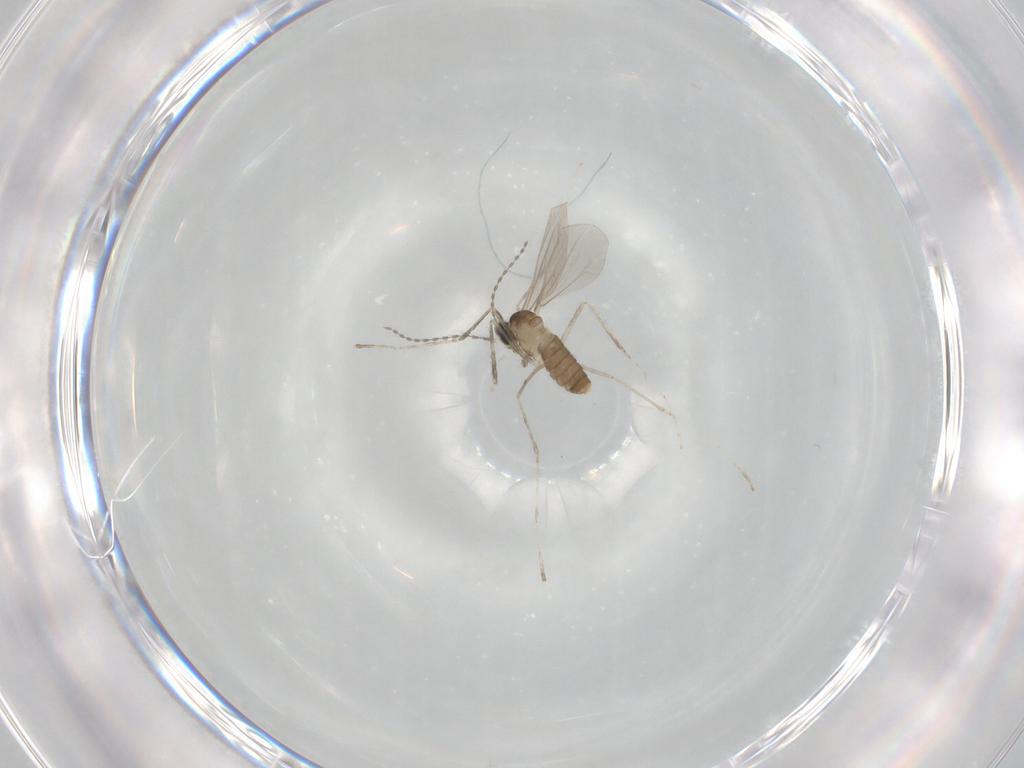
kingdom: Animalia
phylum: Arthropoda
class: Insecta
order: Diptera
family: Cecidomyiidae
